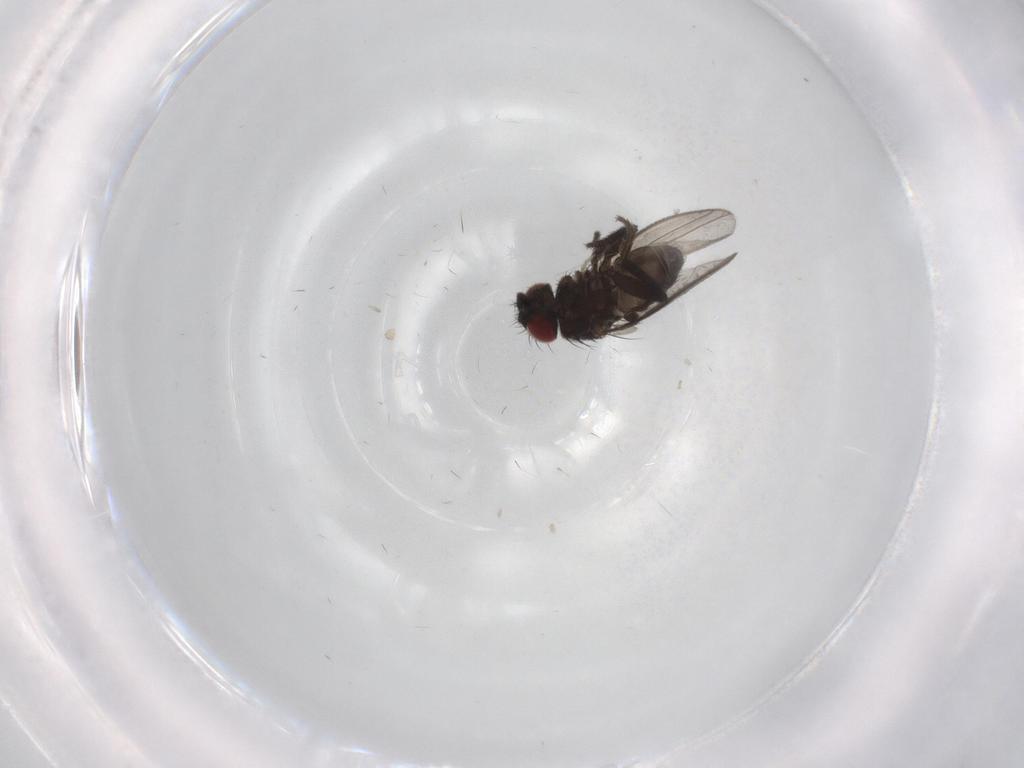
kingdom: Animalia
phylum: Arthropoda
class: Insecta
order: Diptera
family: Limoniidae
